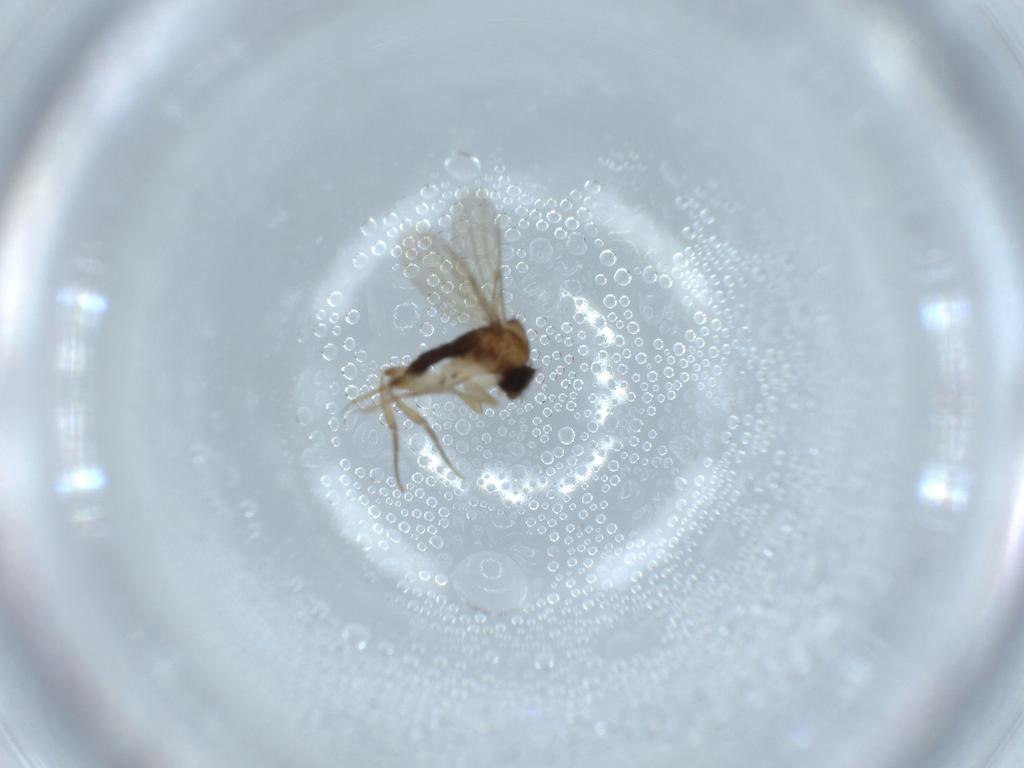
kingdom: Animalia
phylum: Arthropoda
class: Insecta
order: Diptera
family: Phoridae
